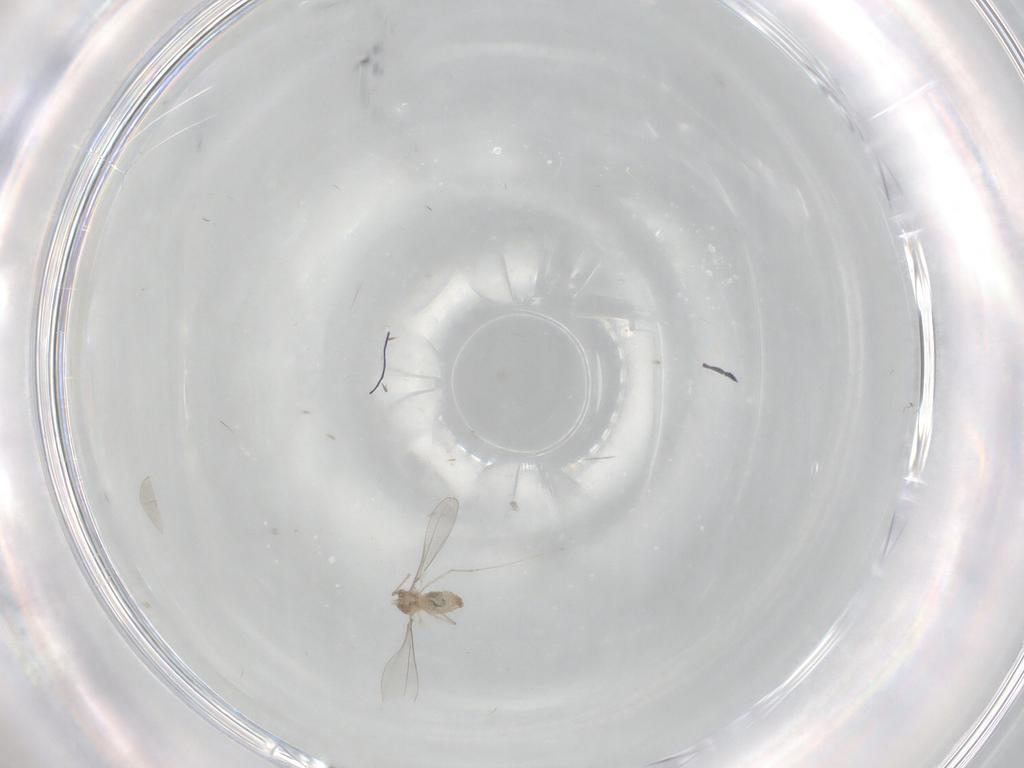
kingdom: Animalia
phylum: Arthropoda
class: Insecta
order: Diptera
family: Cecidomyiidae
